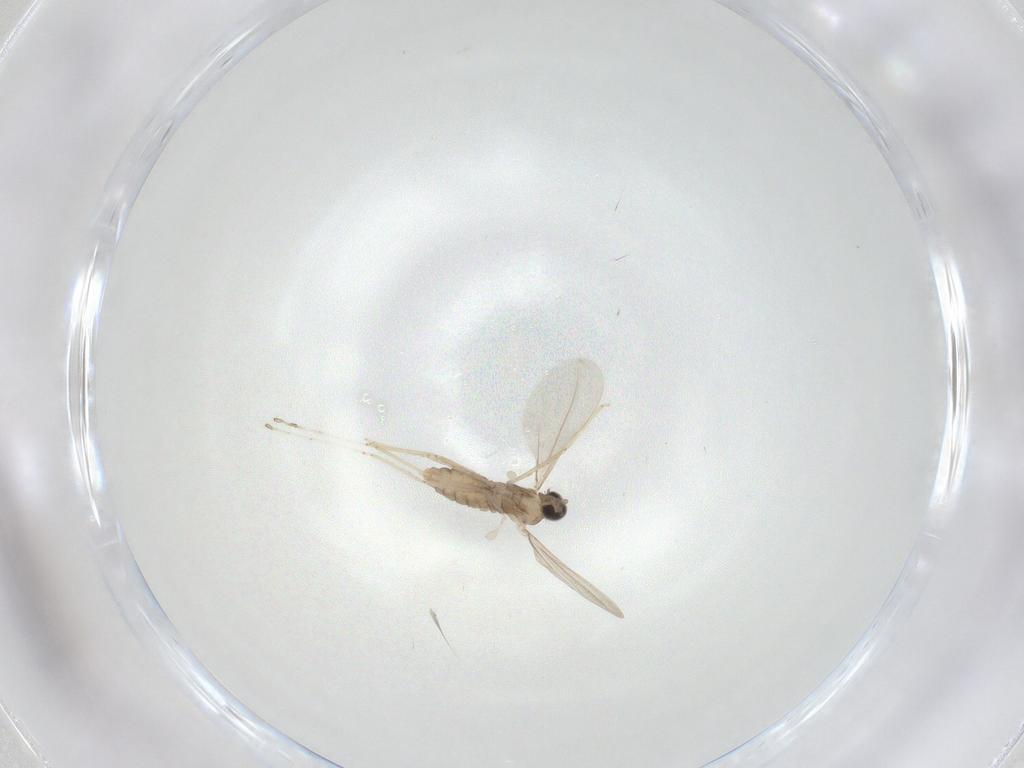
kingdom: Animalia
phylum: Arthropoda
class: Insecta
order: Diptera
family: Cecidomyiidae
